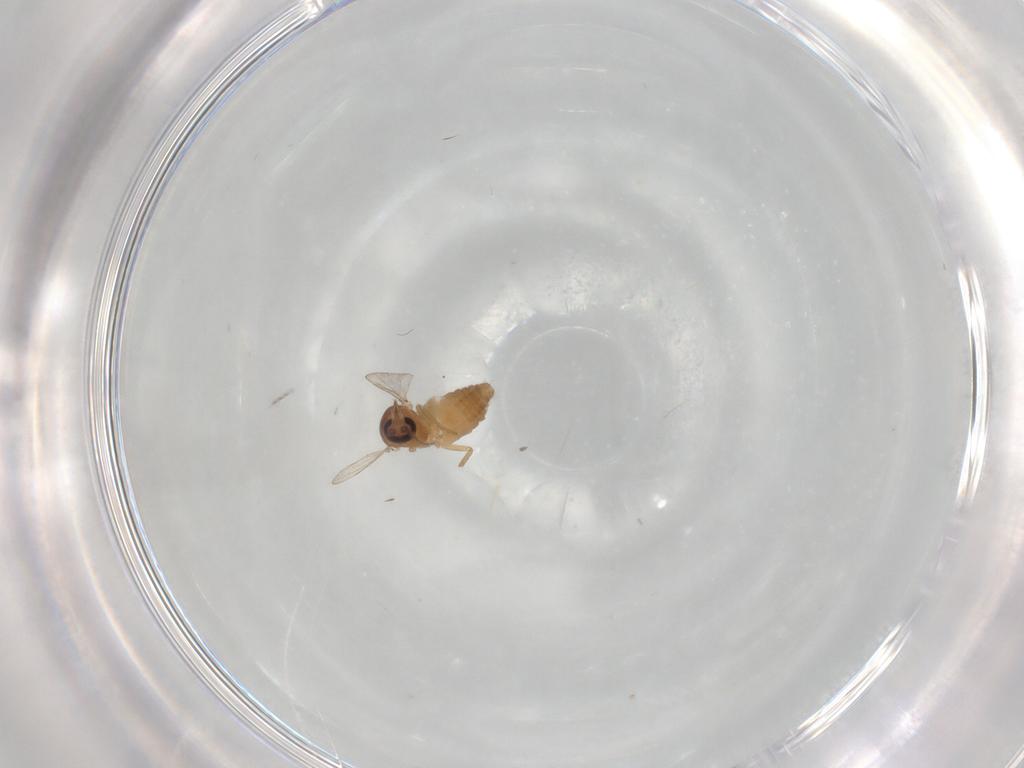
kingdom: Animalia
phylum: Arthropoda
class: Insecta
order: Diptera
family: Ceratopogonidae
